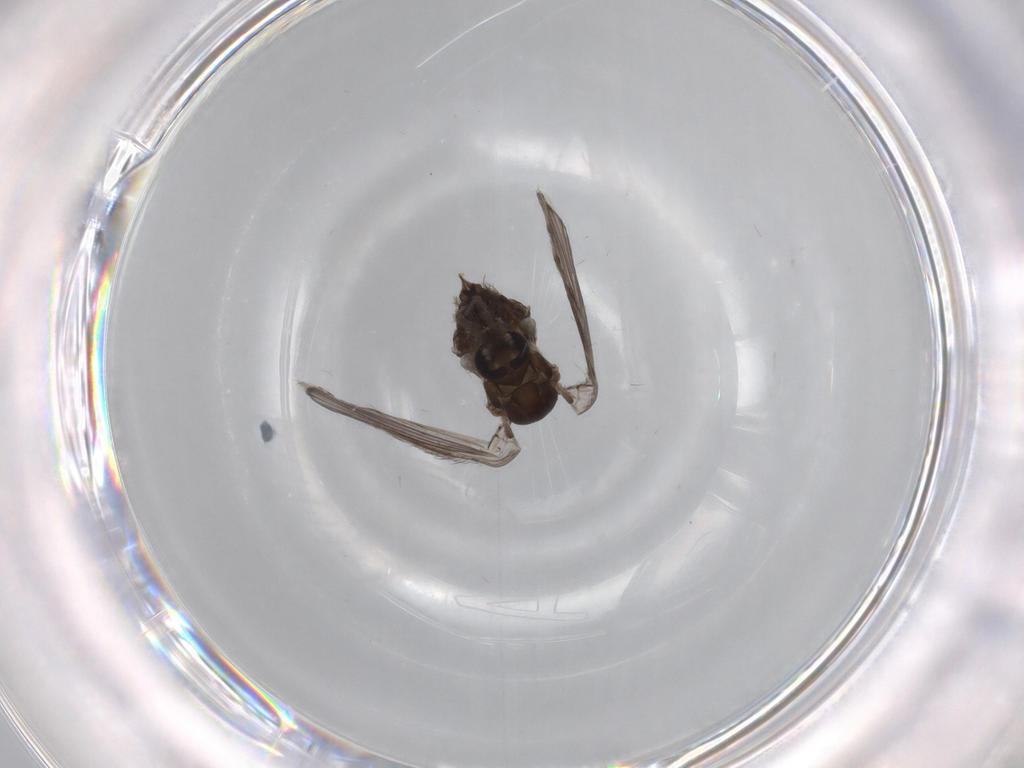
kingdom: Animalia
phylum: Arthropoda
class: Insecta
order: Diptera
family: Psychodidae
